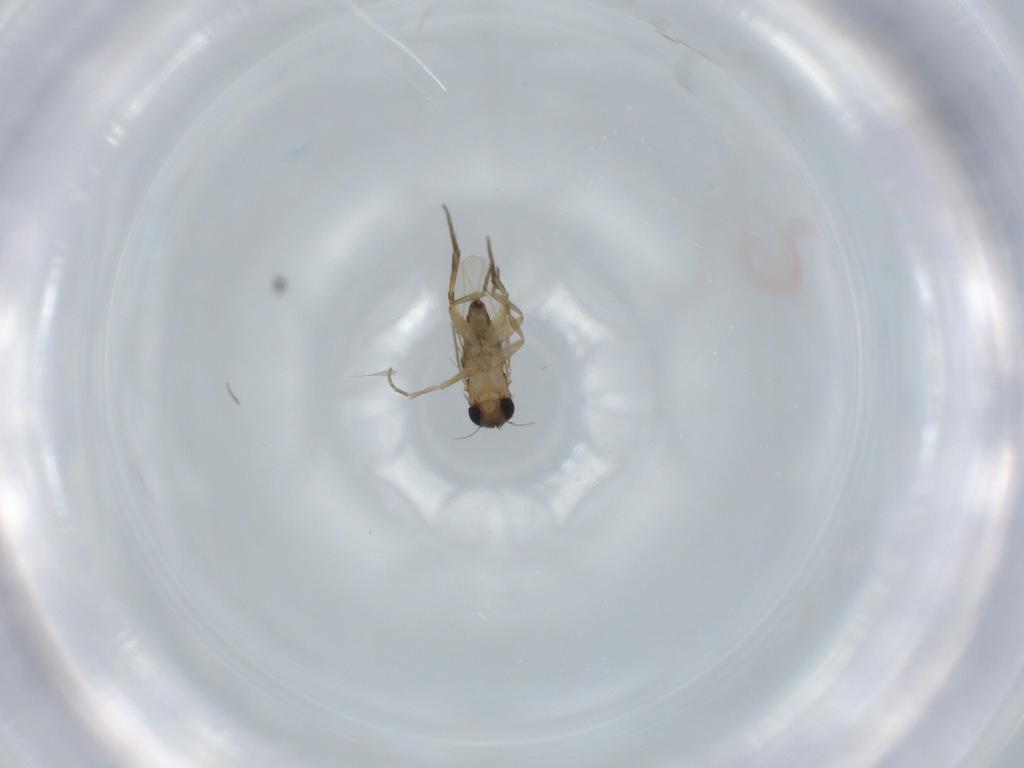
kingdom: Animalia
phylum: Arthropoda
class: Insecta
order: Diptera
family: Phoridae
